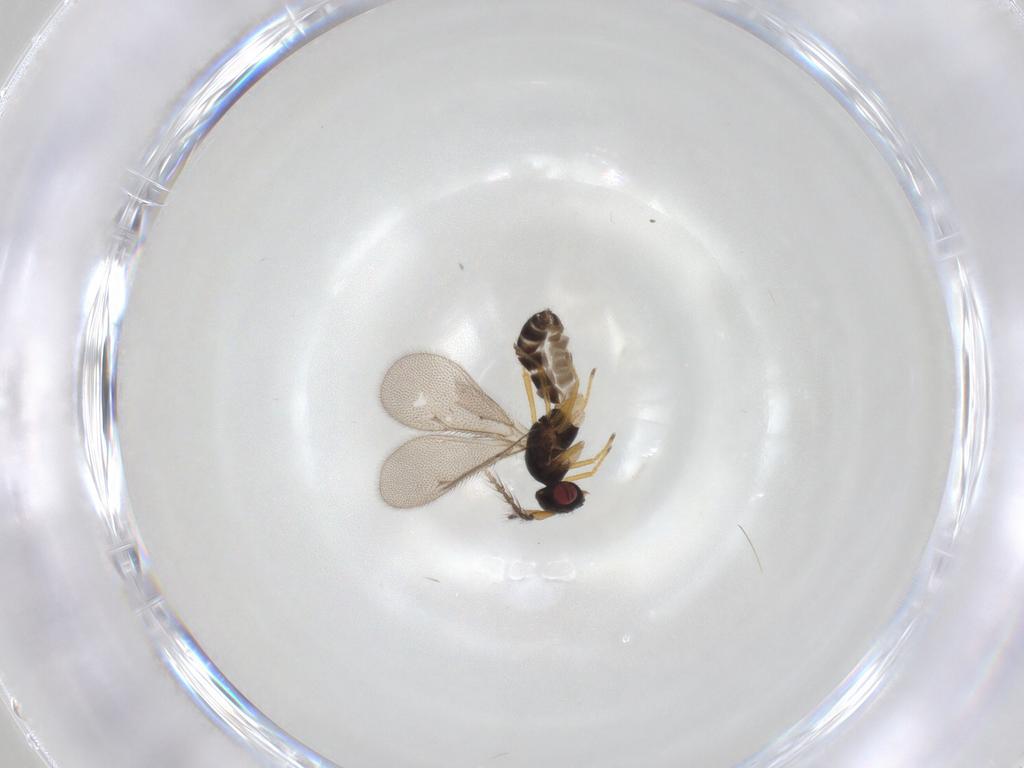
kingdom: Animalia
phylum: Arthropoda
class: Insecta
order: Hymenoptera
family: Eulophidae
